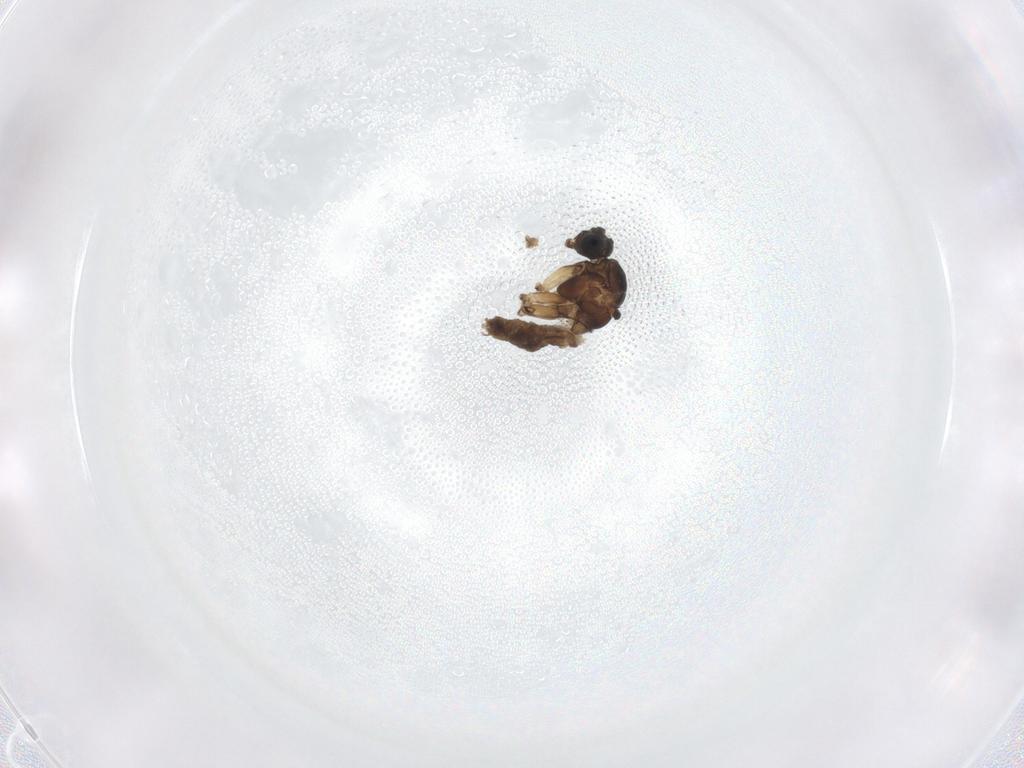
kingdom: Animalia
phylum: Arthropoda
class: Insecta
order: Diptera
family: Sciaridae
